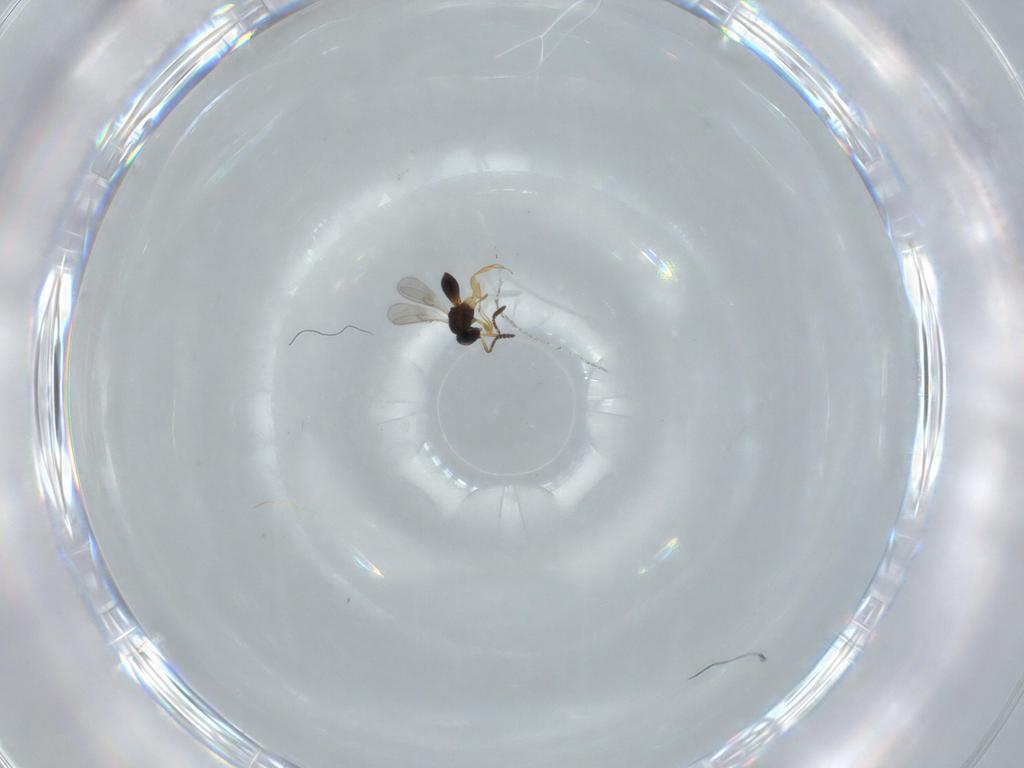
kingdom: Animalia
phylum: Arthropoda
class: Insecta
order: Hymenoptera
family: Scelionidae
